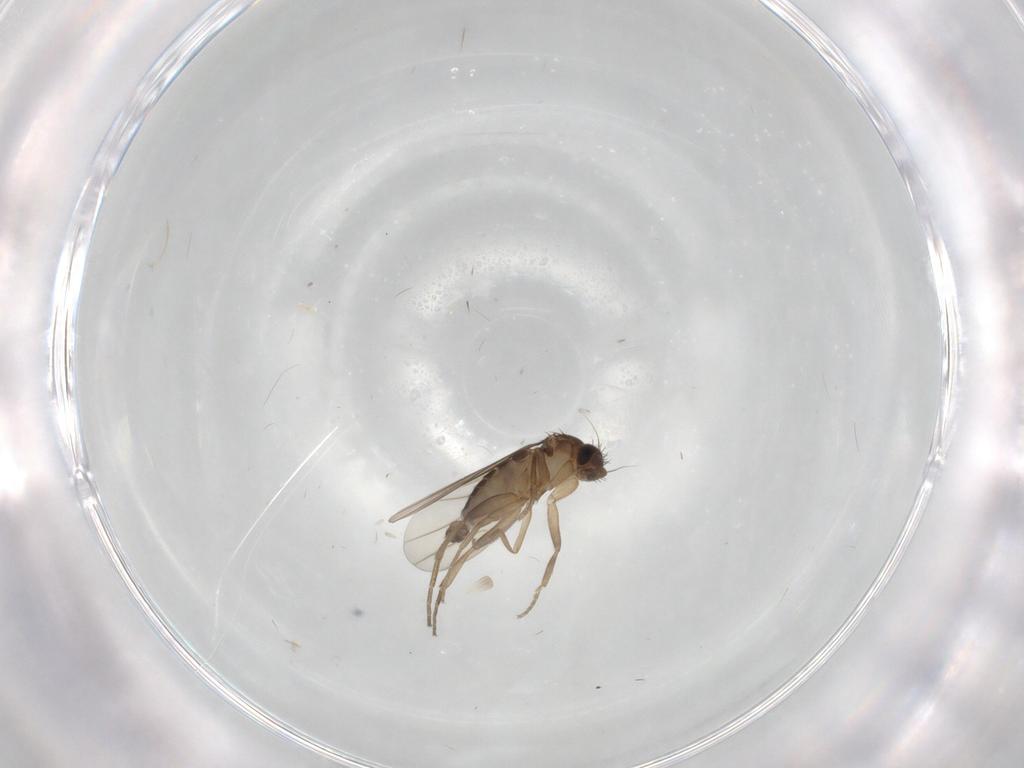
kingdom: Animalia
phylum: Arthropoda
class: Insecta
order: Diptera
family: Phoridae
